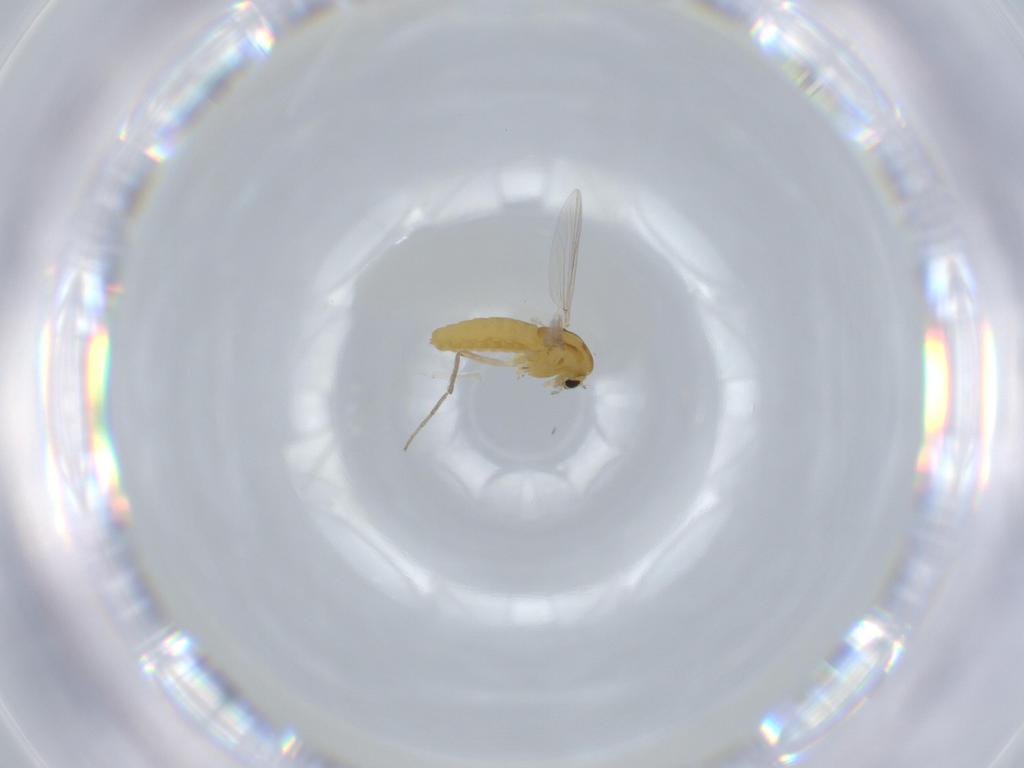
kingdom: Animalia
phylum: Arthropoda
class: Insecta
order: Diptera
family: Chironomidae
